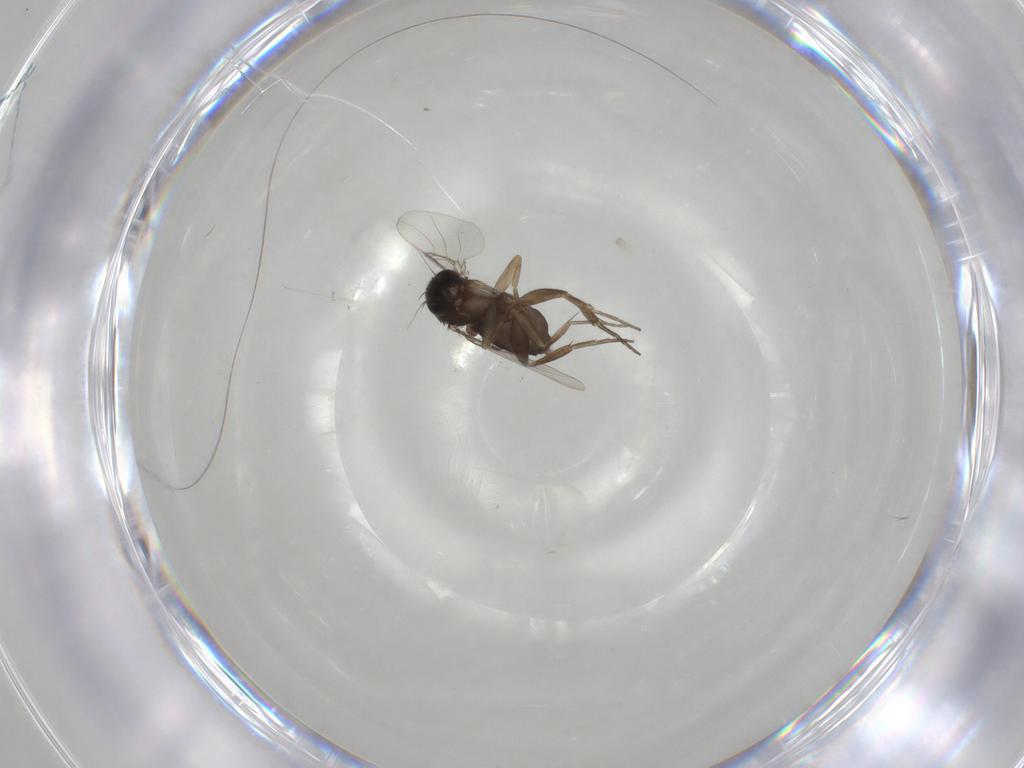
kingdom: Animalia
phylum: Arthropoda
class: Insecta
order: Diptera
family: Phoridae
